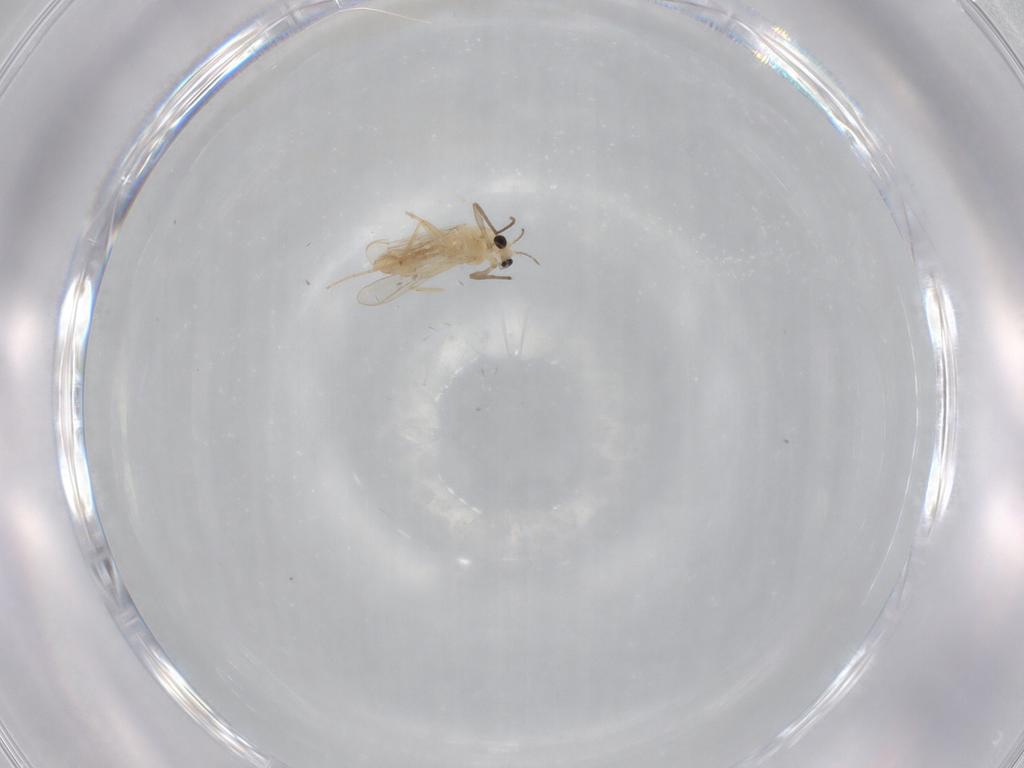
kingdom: Animalia
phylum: Arthropoda
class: Insecta
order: Diptera
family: Chironomidae
